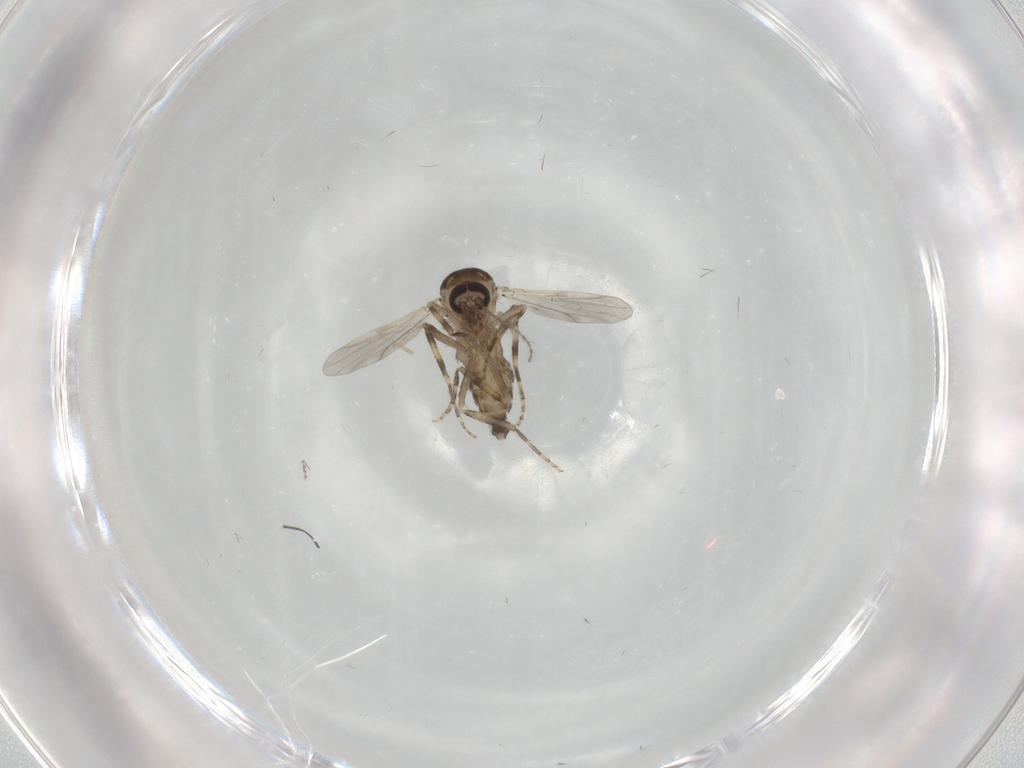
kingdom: Animalia
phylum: Arthropoda
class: Insecta
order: Diptera
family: Ceratopogonidae
